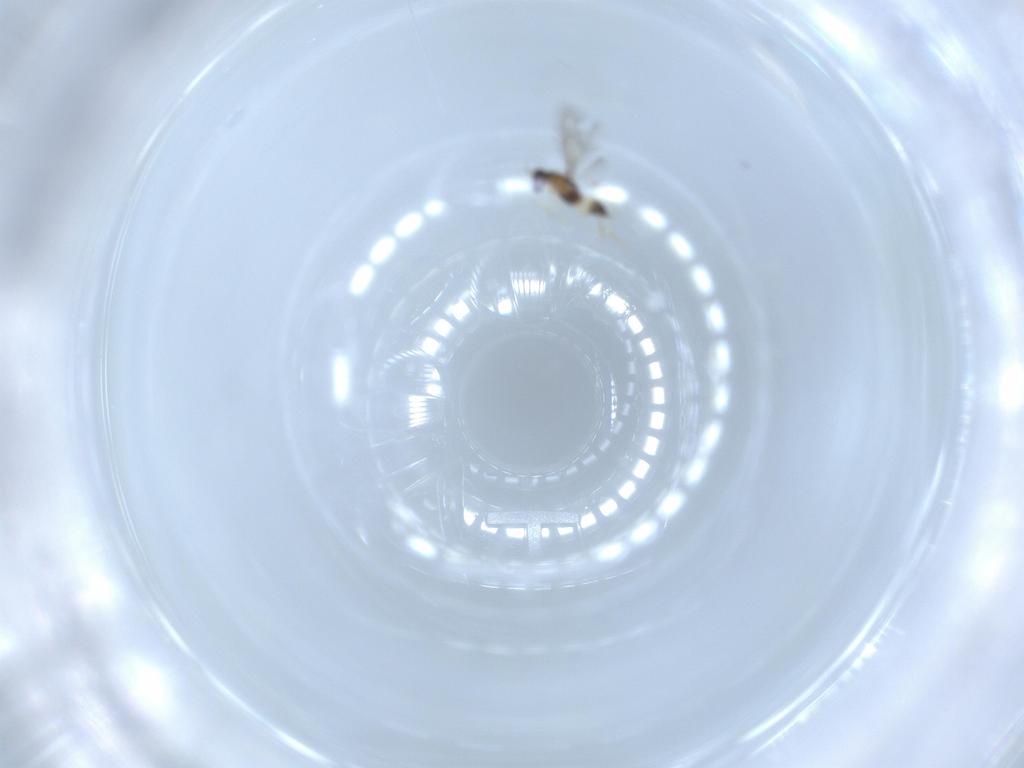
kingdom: Animalia
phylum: Arthropoda
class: Insecta
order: Hymenoptera
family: Mymaridae
